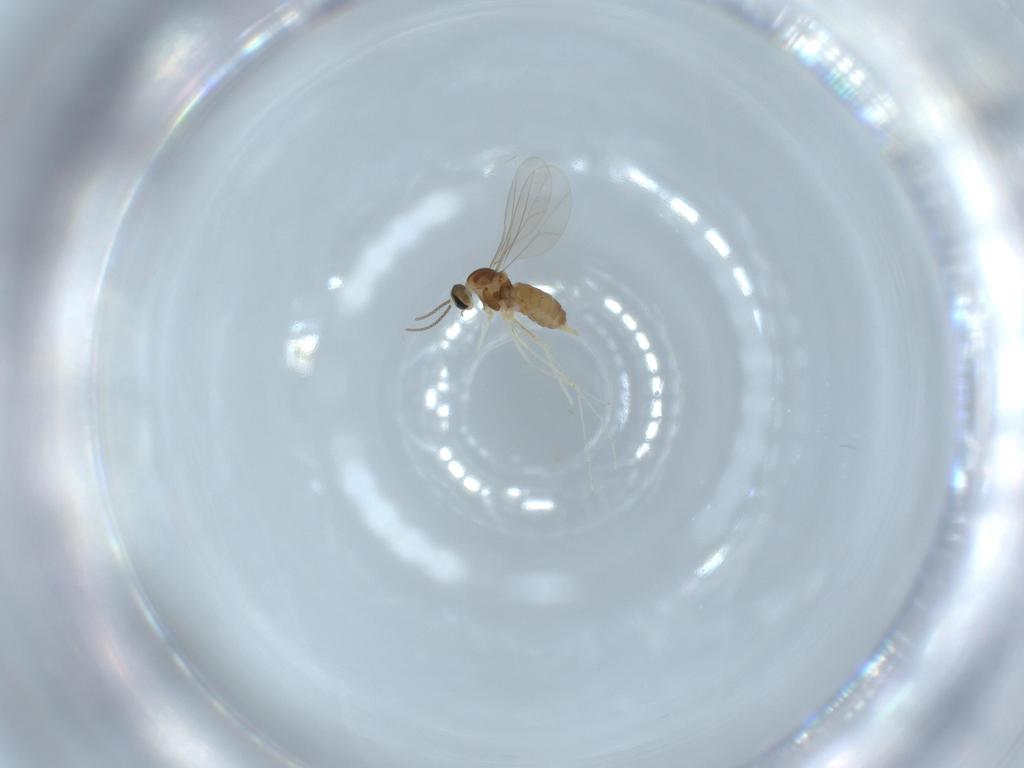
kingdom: Animalia
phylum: Arthropoda
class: Insecta
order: Diptera
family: Cecidomyiidae
